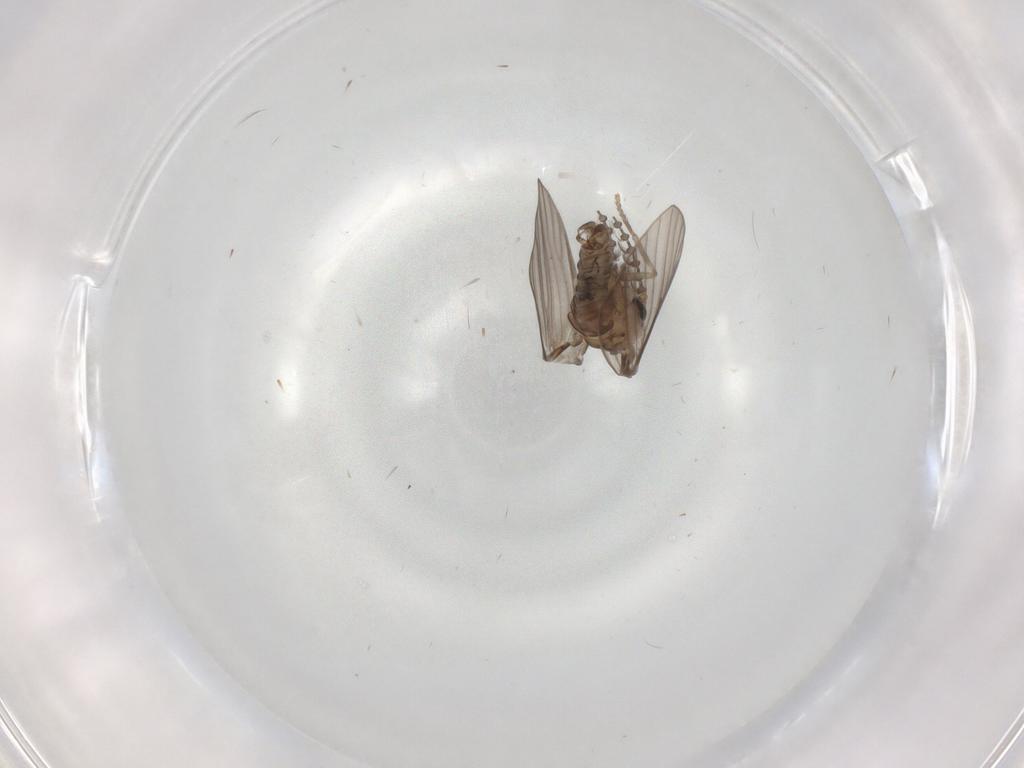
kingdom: Animalia
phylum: Arthropoda
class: Insecta
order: Diptera
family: Psychodidae
